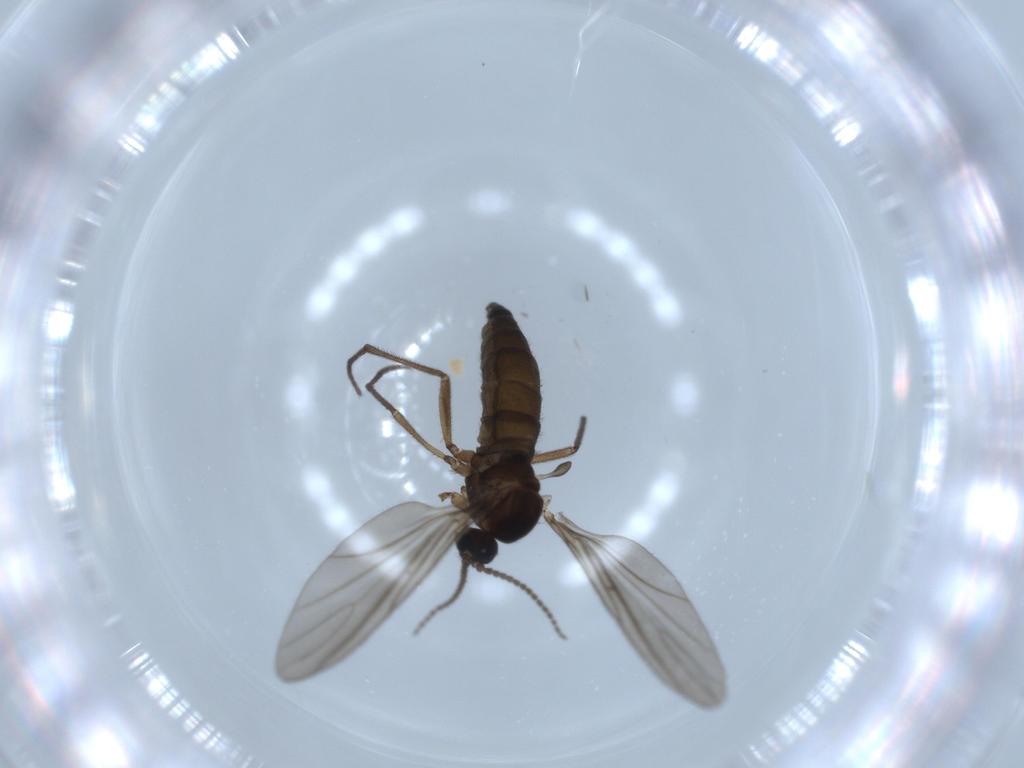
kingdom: Animalia
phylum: Arthropoda
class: Insecta
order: Diptera
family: Sciaridae
